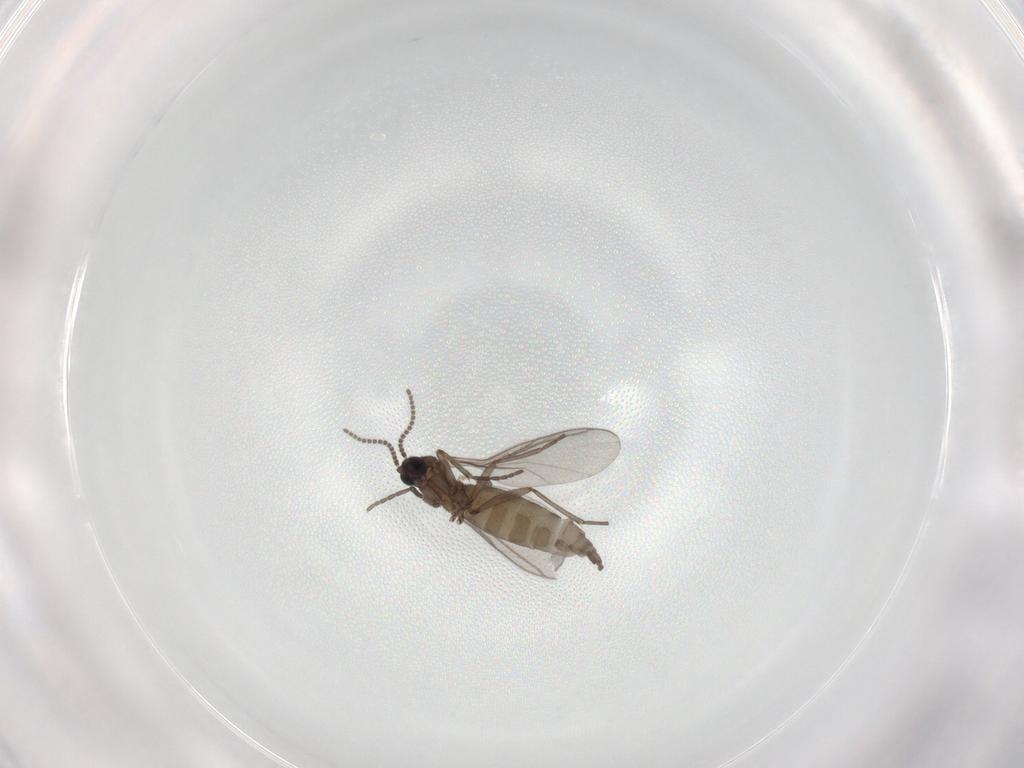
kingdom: Animalia
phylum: Arthropoda
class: Insecta
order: Diptera
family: Sciaridae
